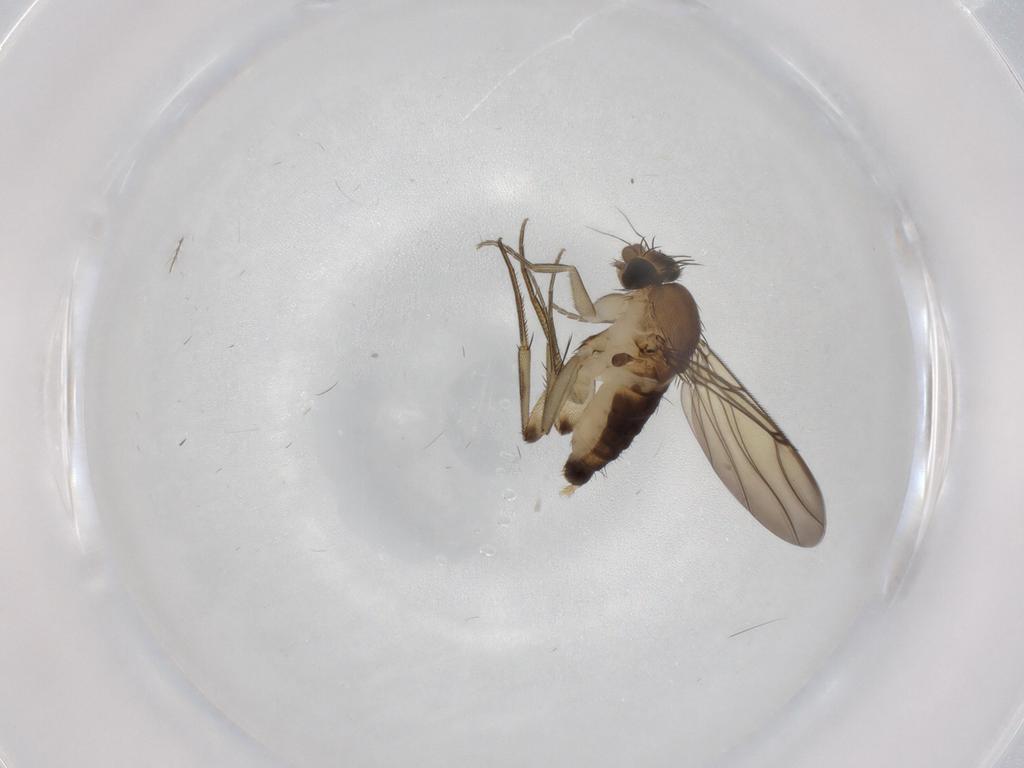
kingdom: Animalia
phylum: Arthropoda
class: Insecta
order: Diptera
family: Phoridae
